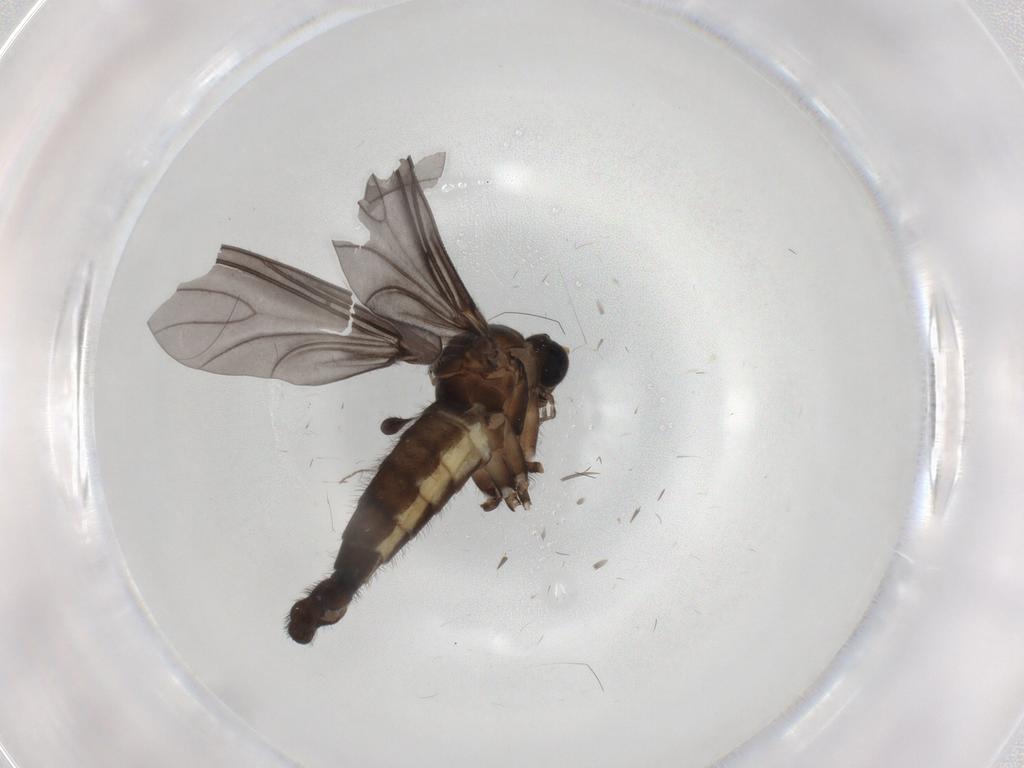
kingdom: Animalia
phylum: Arthropoda
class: Insecta
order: Diptera
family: Sciaridae
